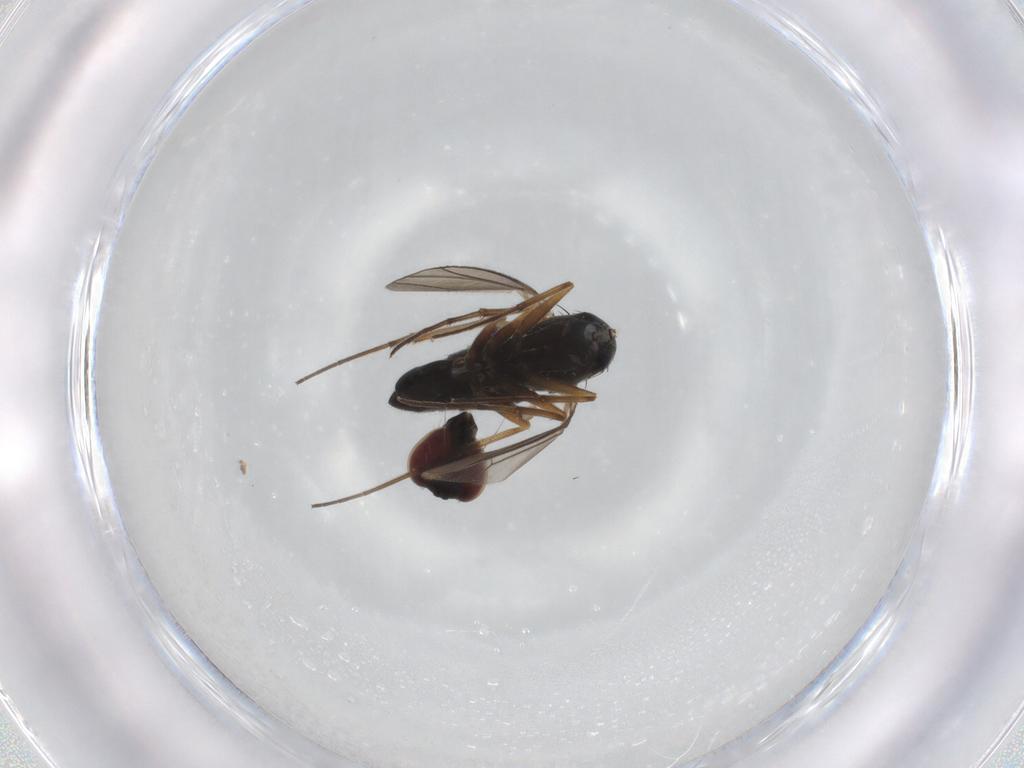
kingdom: Animalia
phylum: Arthropoda
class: Insecta
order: Diptera
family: Dolichopodidae
